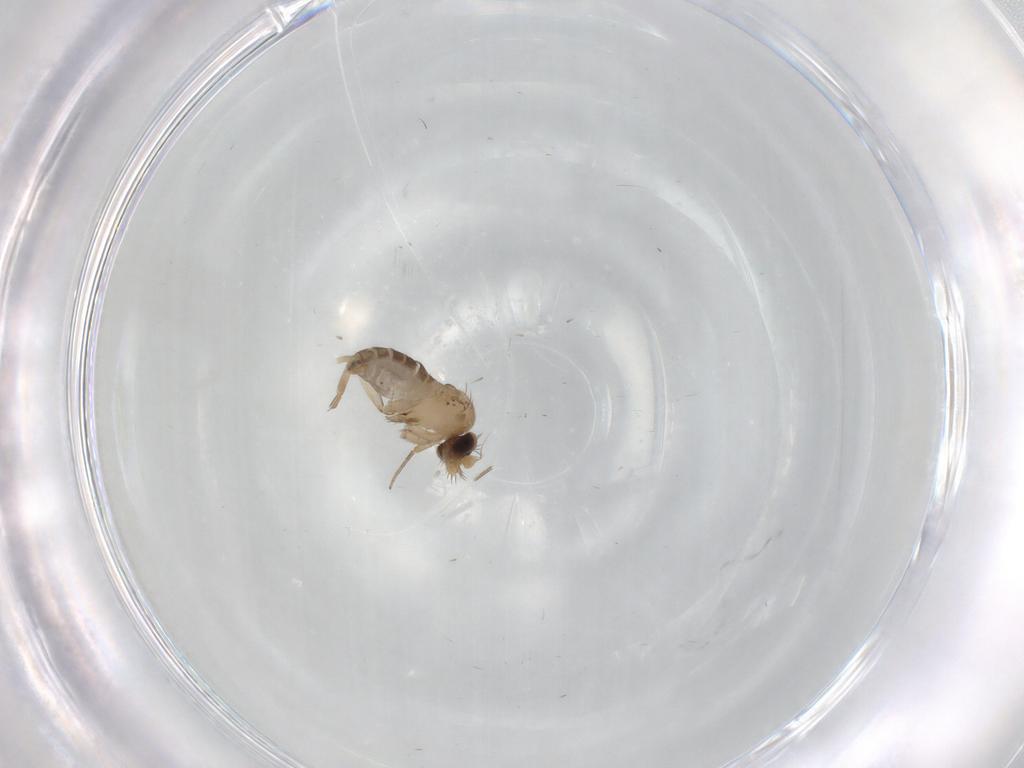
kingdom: Animalia
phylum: Arthropoda
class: Insecta
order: Diptera
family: Phoridae
